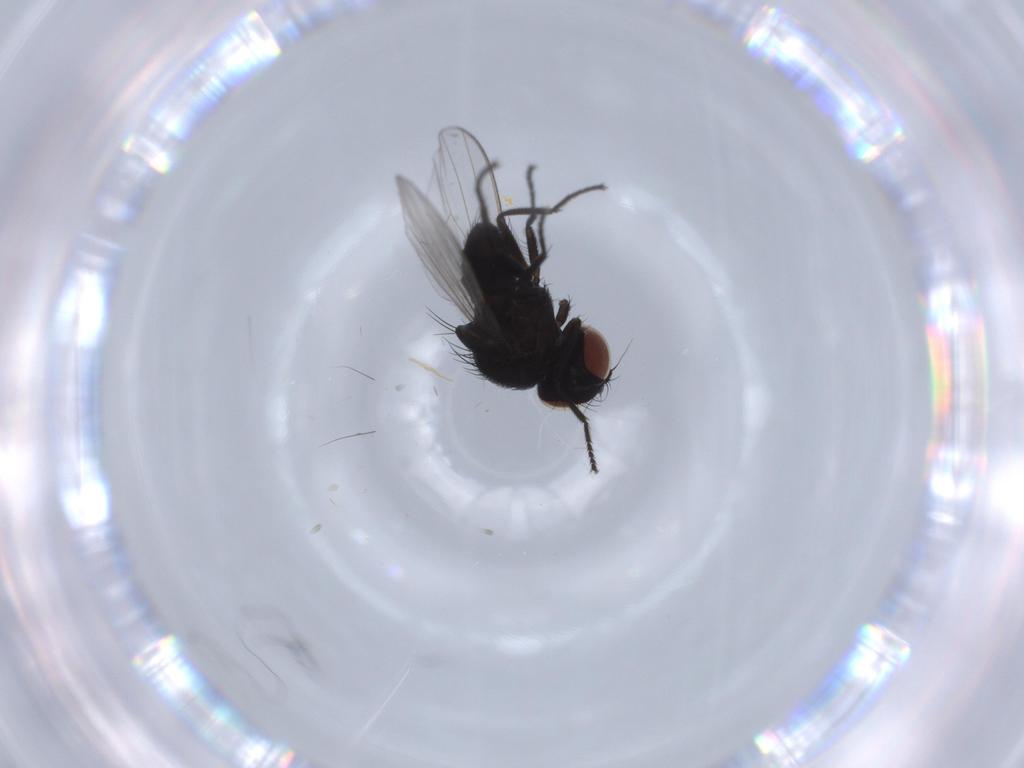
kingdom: Animalia
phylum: Arthropoda
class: Insecta
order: Diptera
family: Milichiidae
